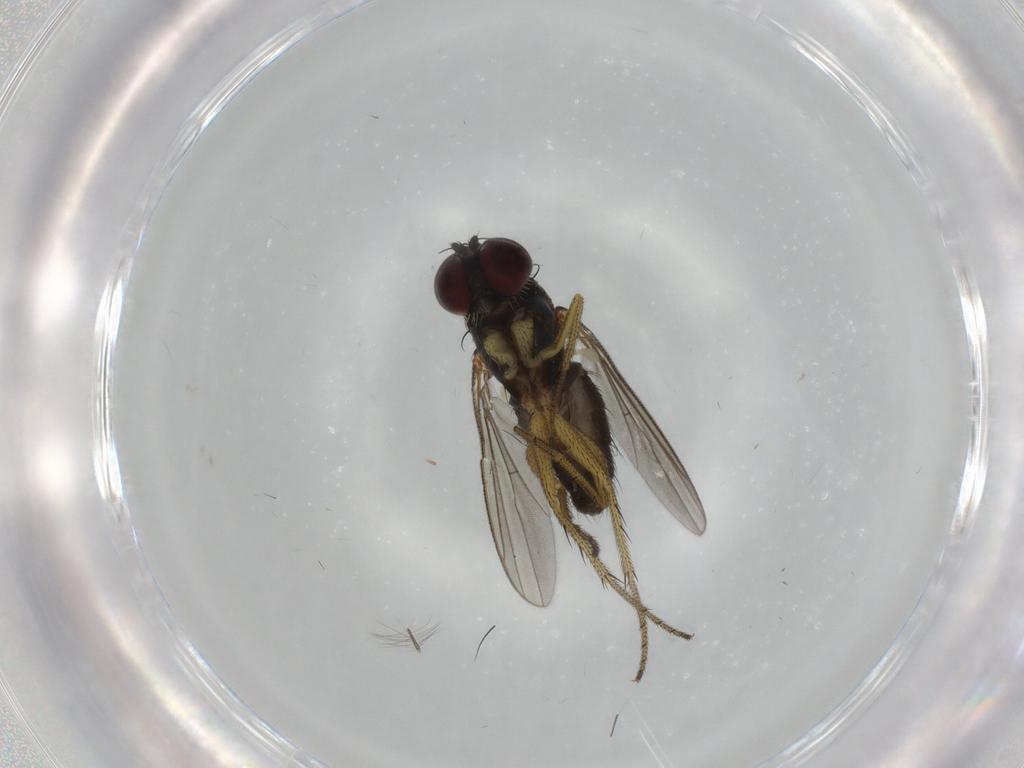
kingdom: Animalia
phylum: Arthropoda
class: Insecta
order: Diptera
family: Dolichopodidae
